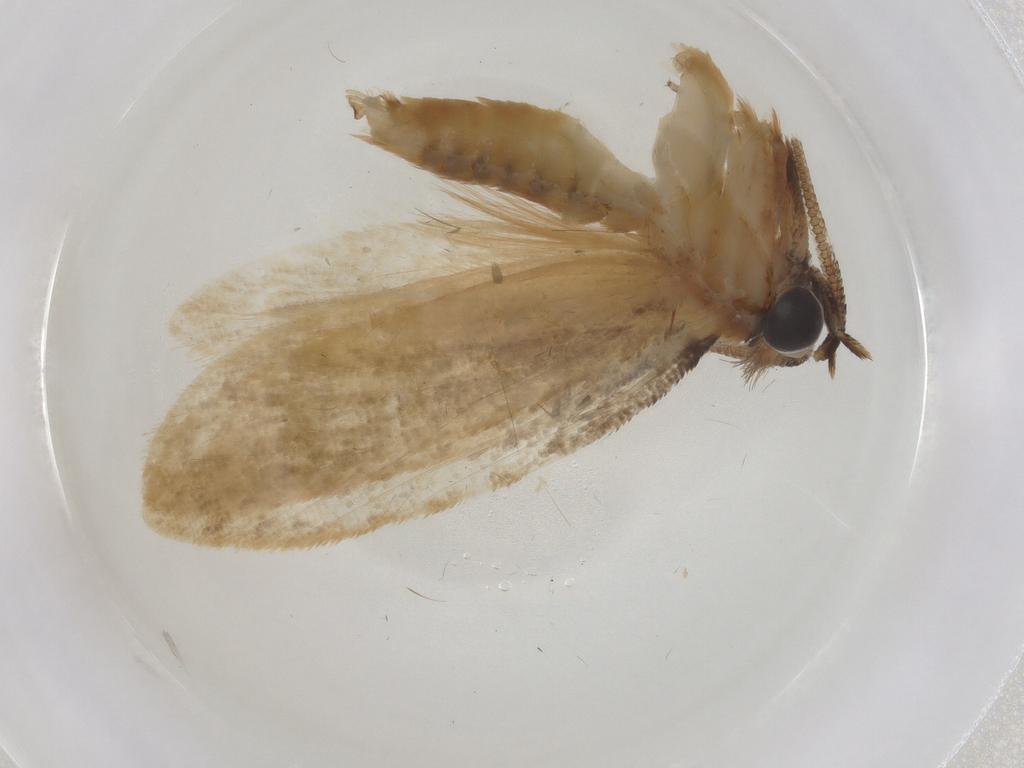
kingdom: Animalia
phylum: Arthropoda
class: Insecta
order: Lepidoptera
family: Tineidae
